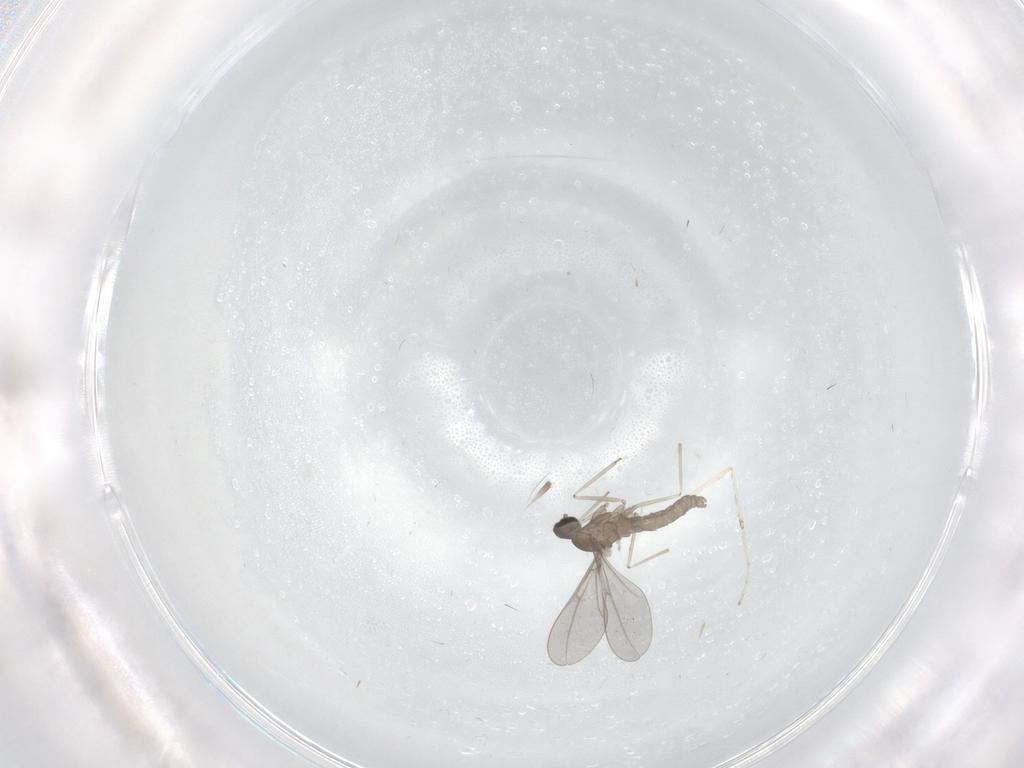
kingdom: Animalia
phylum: Arthropoda
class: Insecta
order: Diptera
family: Cecidomyiidae
